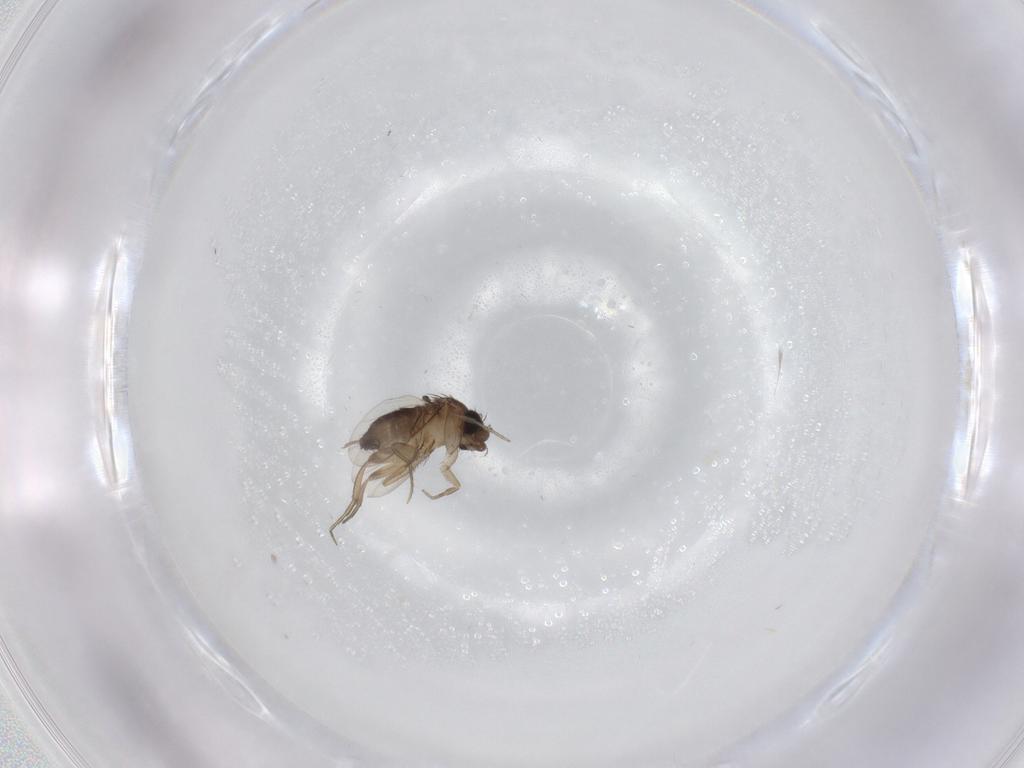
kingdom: Animalia
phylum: Arthropoda
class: Insecta
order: Diptera
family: Phoridae
